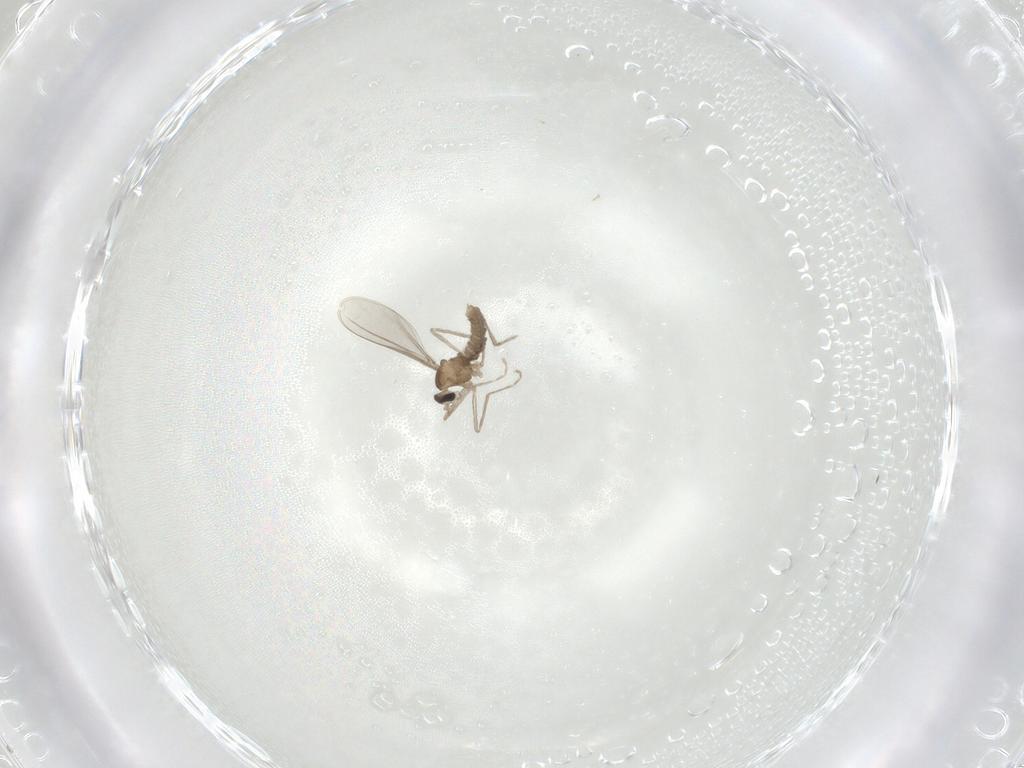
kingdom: Animalia
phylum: Arthropoda
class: Insecta
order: Diptera
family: Cecidomyiidae
